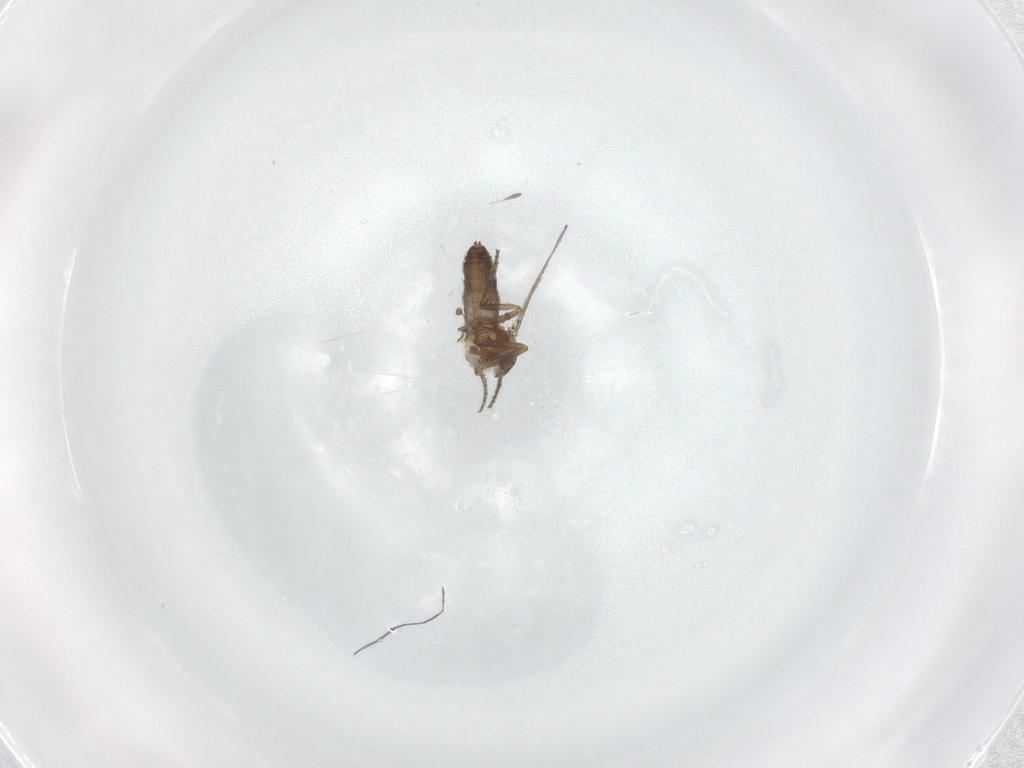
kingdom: Animalia
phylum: Arthropoda
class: Insecta
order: Diptera
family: Ceratopogonidae
